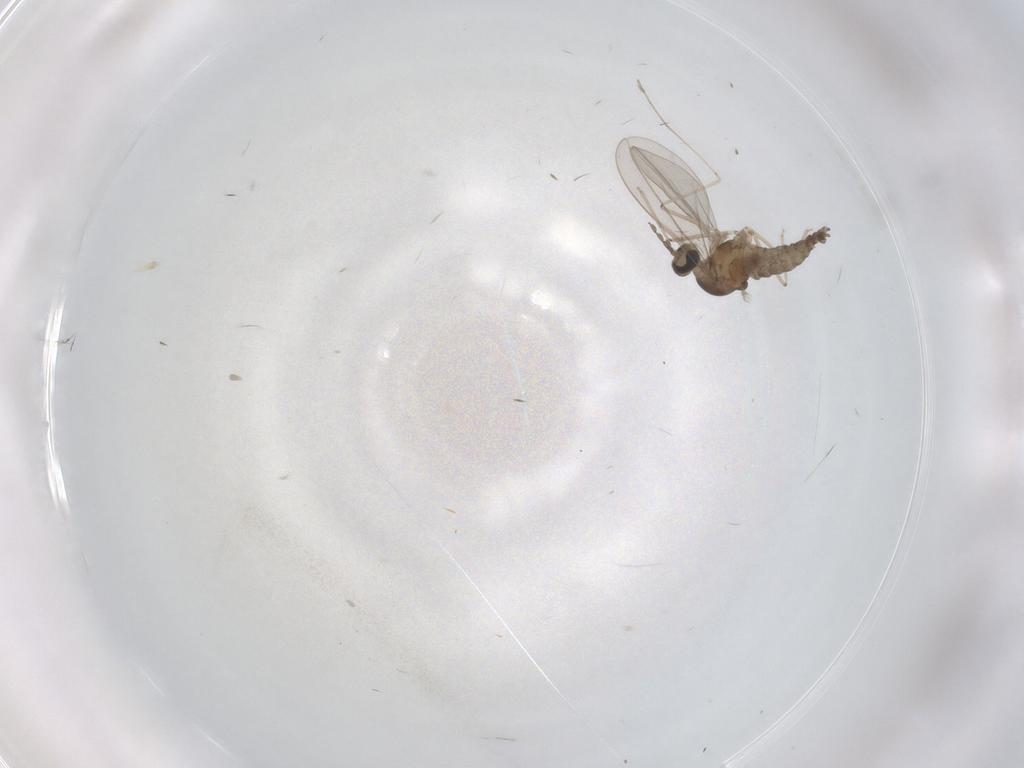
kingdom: Animalia
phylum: Arthropoda
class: Insecta
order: Diptera
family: Cecidomyiidae
